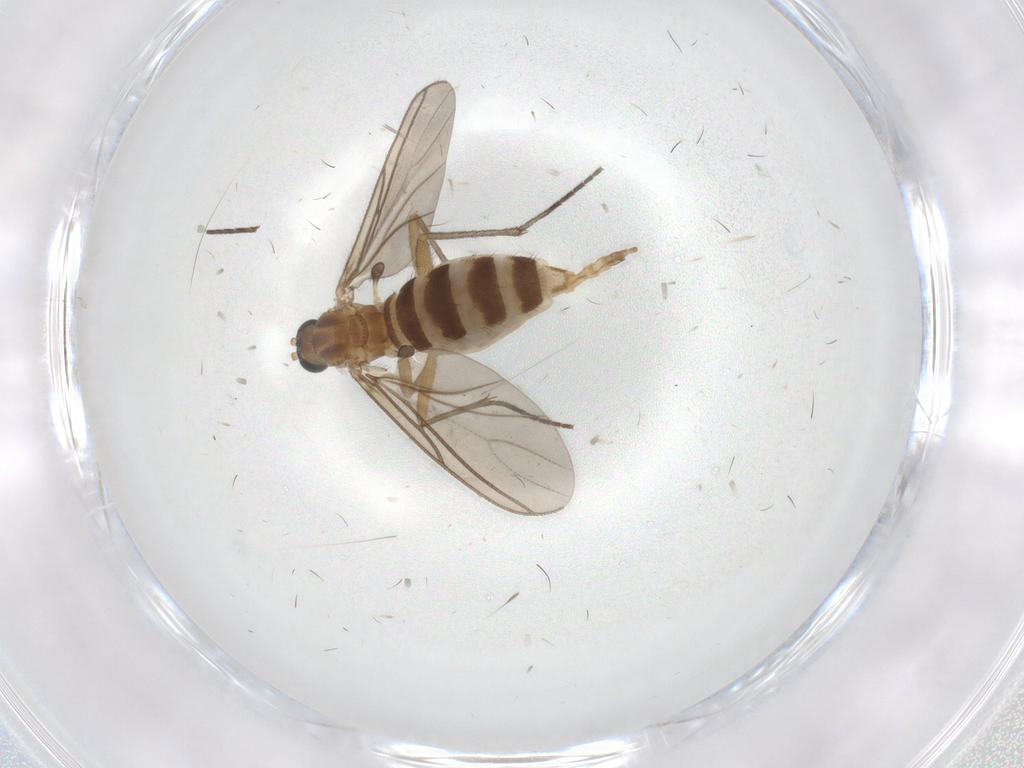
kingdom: Animalia
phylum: Arthropoda
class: Insecta
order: Diptera
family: Sciaridae
